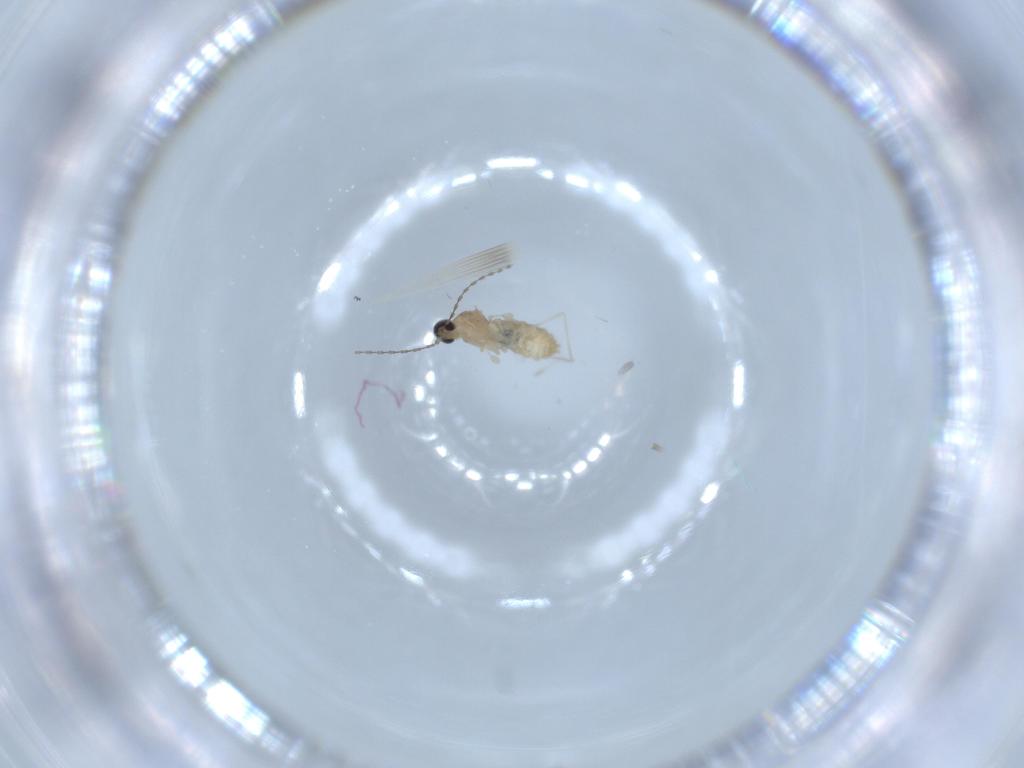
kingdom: Animalia
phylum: Arthropoda
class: Insecta
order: Diptera
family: Cecidomyiidae
